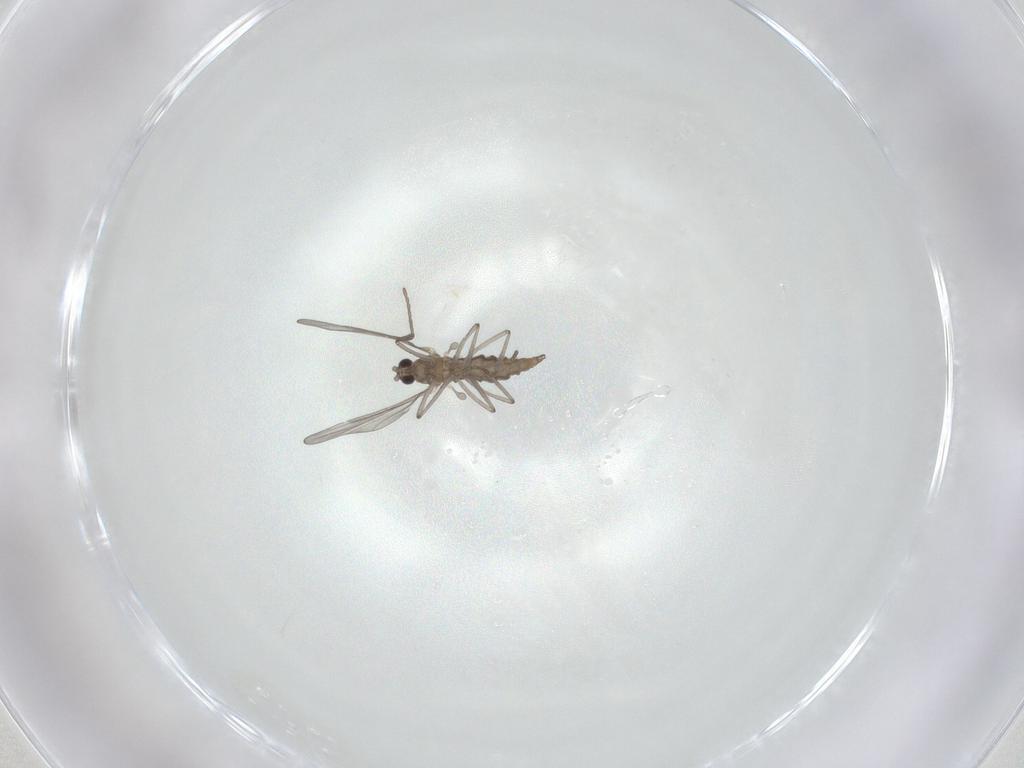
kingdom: Animalia
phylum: Arthropoda
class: Insecta
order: Diptera
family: Cecidomyiidae
